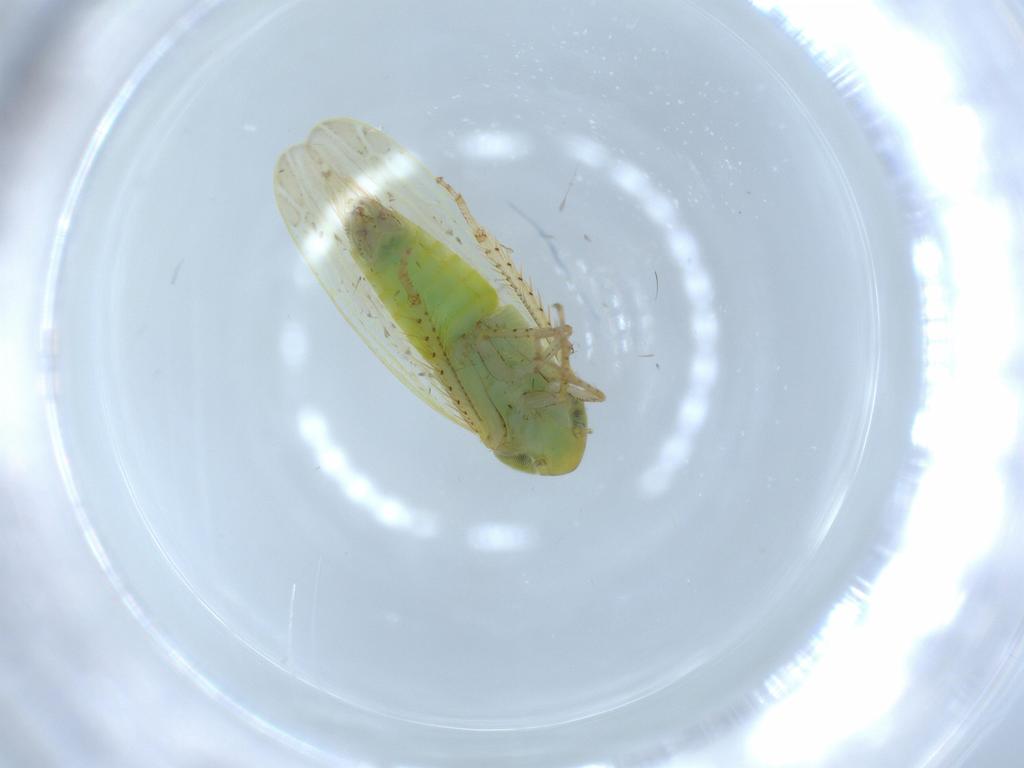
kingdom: Animalia
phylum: Arthropoda
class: Insecta
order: Hemiptera
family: Cicadellidae
